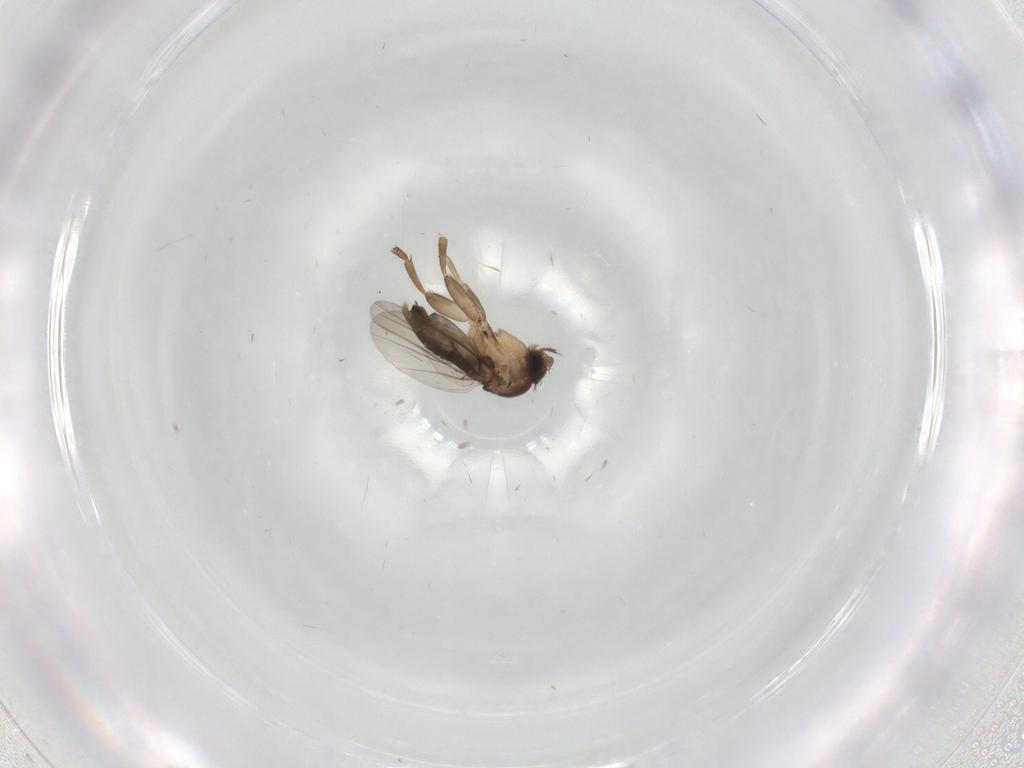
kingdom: Animalia
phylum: Arthropoda
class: Insecta
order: Diptera
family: Phoridae
